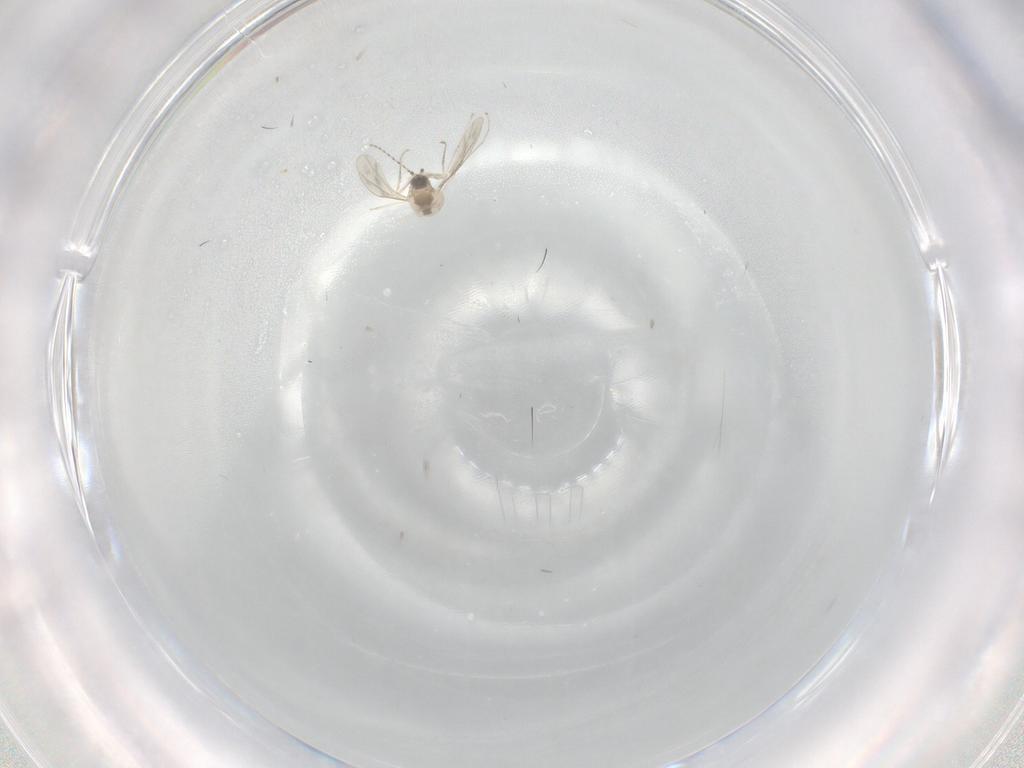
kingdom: Animalia
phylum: Arthropoda
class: Insecta
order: Diptera
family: Cecidomyiidae
